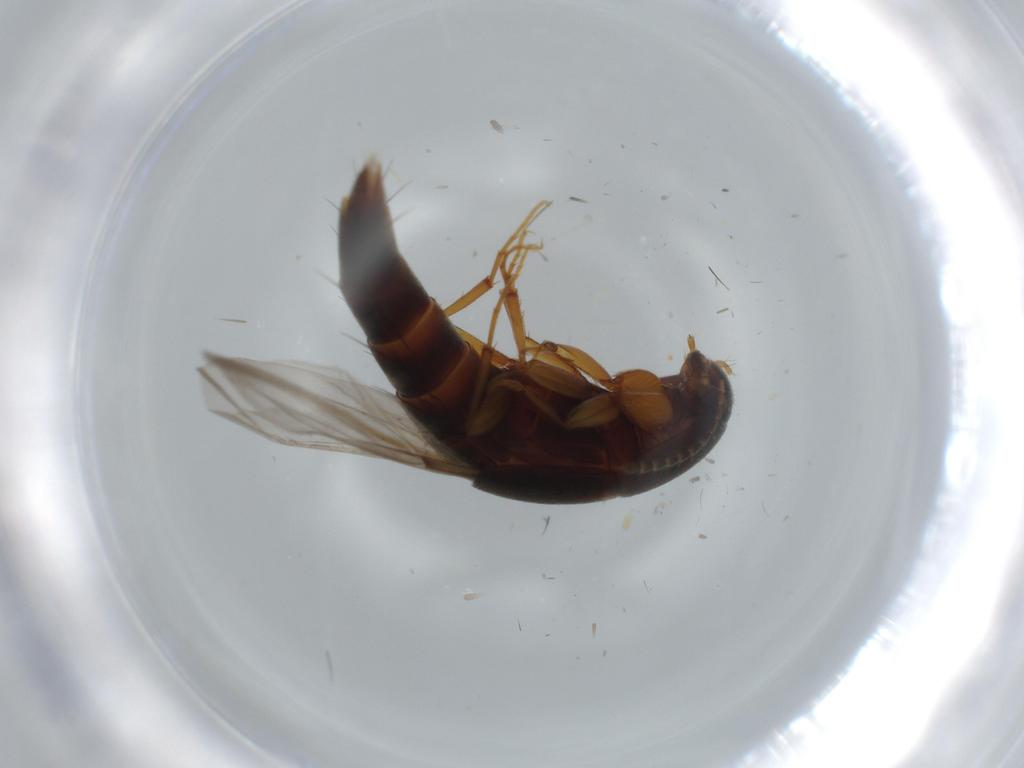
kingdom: Animalia
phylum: Arthropoda
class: Insecta
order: Coleoptera
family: Staphylinidae
